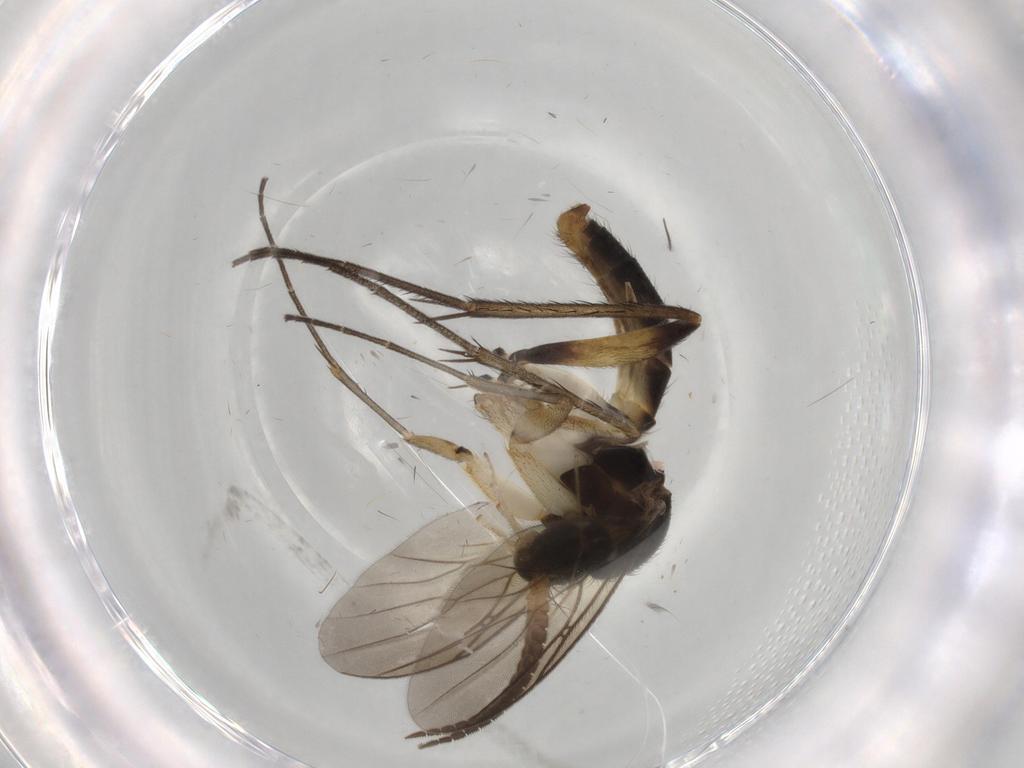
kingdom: Animalia
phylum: Arthropoda
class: Insecta
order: Diptera
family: Mycetophilidae
